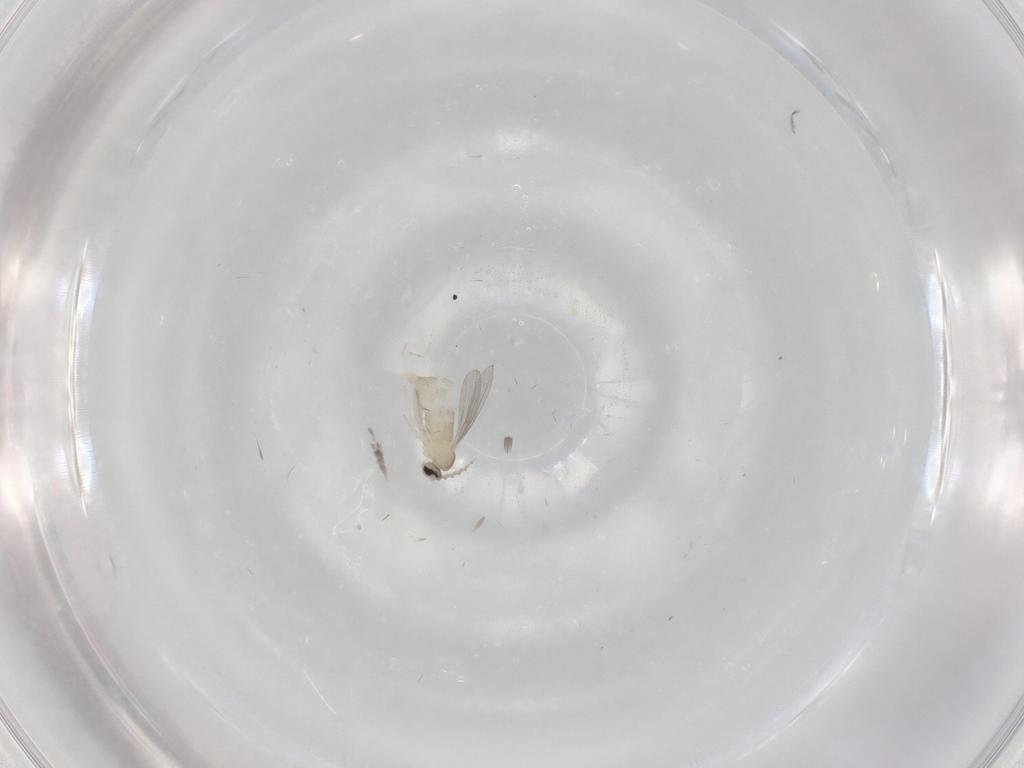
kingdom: Animalia
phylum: Arthropoda
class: Insecta
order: Diptera
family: Cecidomyiidae
